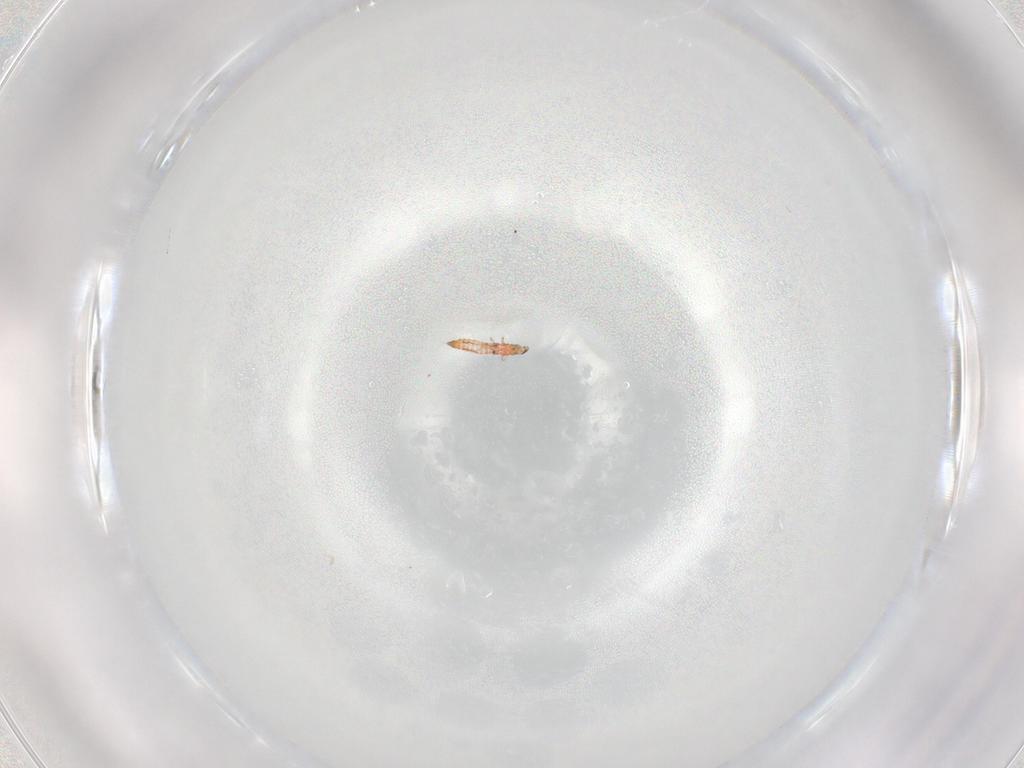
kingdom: Animalia
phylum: Arthropoda
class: Insecta
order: Thysanoptera
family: Phlaeothripidae
